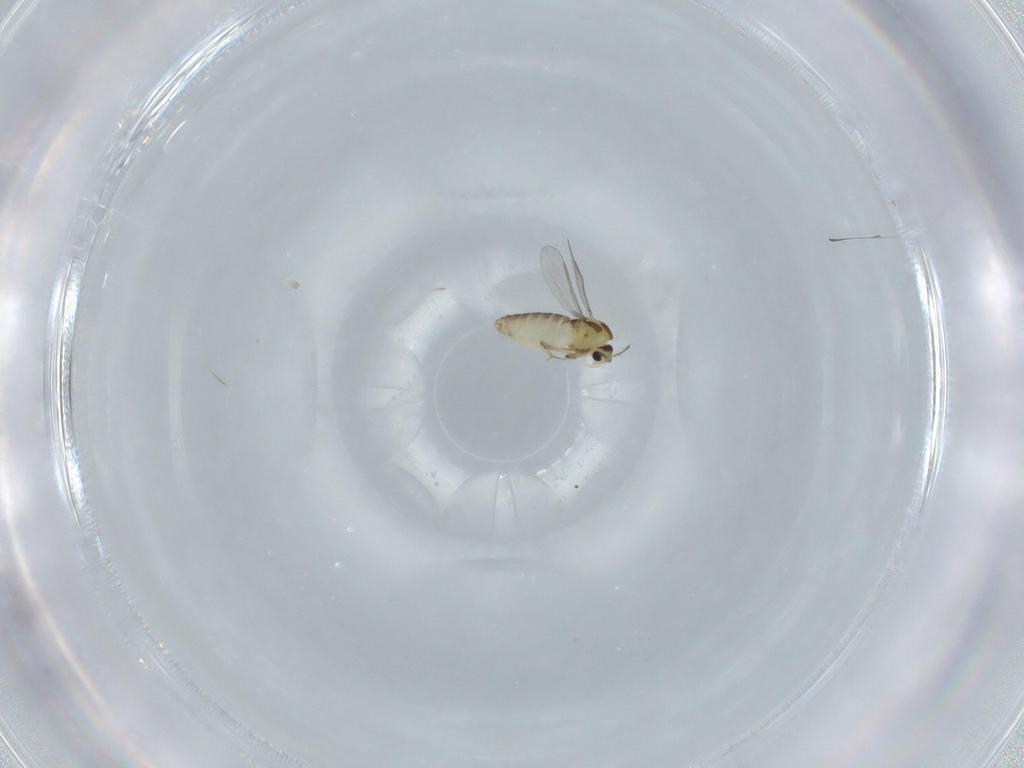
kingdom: Animalia
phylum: Arthropoda
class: Insecta
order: Diptera
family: Chironomidae
